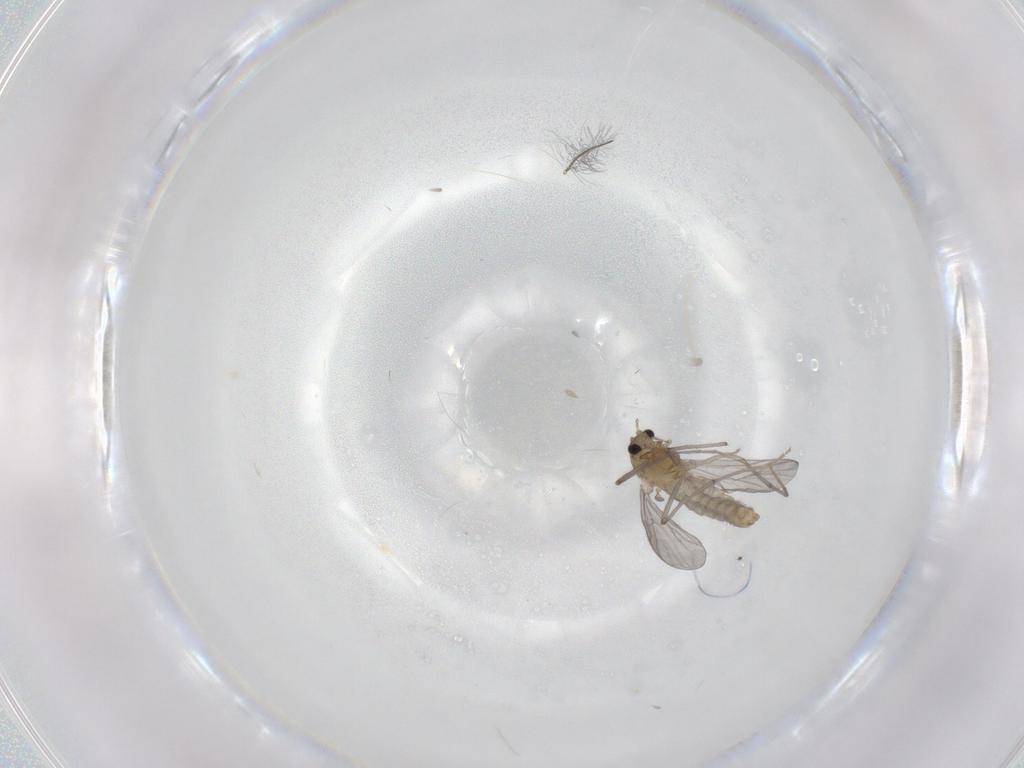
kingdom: Animalia
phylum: Arthropoda
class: Insecta
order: Diptera
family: Chironomidae
